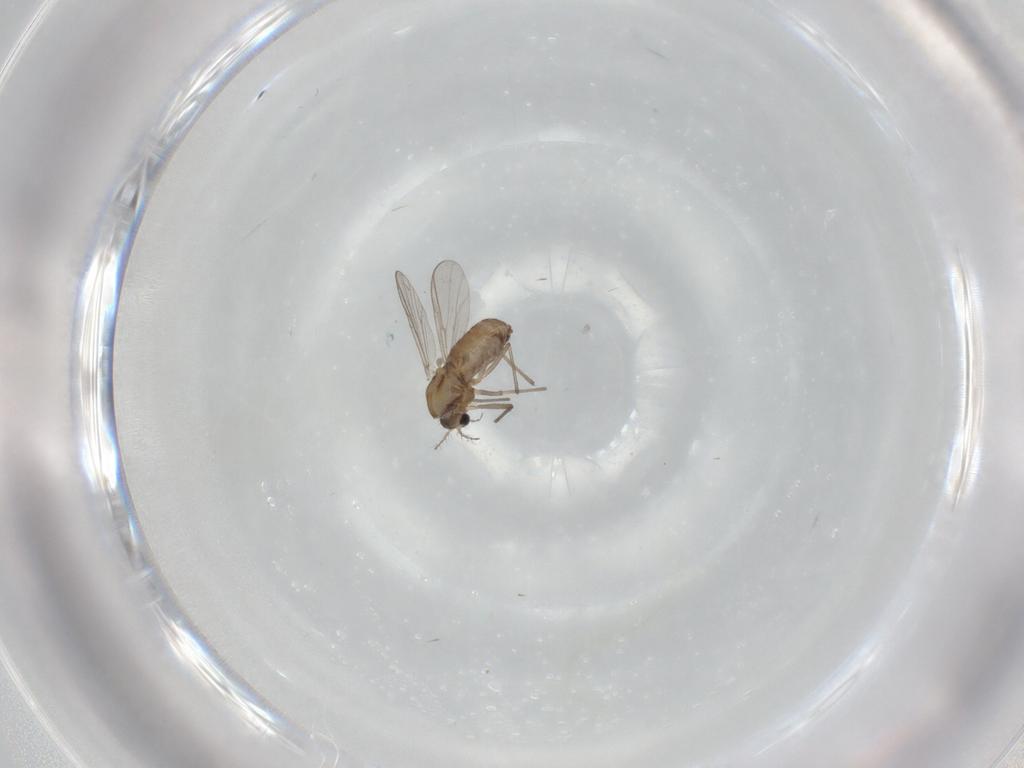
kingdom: Animalia
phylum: Arthropoda
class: Insecta
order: Diptera
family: Chironomidae
